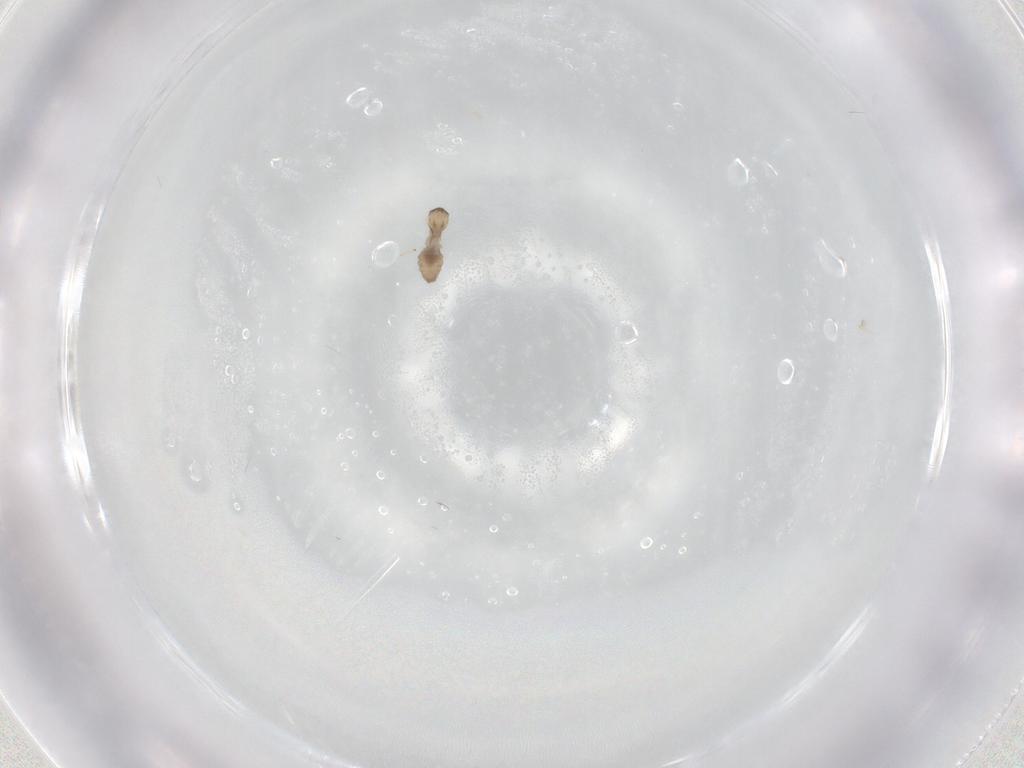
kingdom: Animalia
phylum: Arthropoda
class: Insecta
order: Diptera
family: Cecidomyiidae
